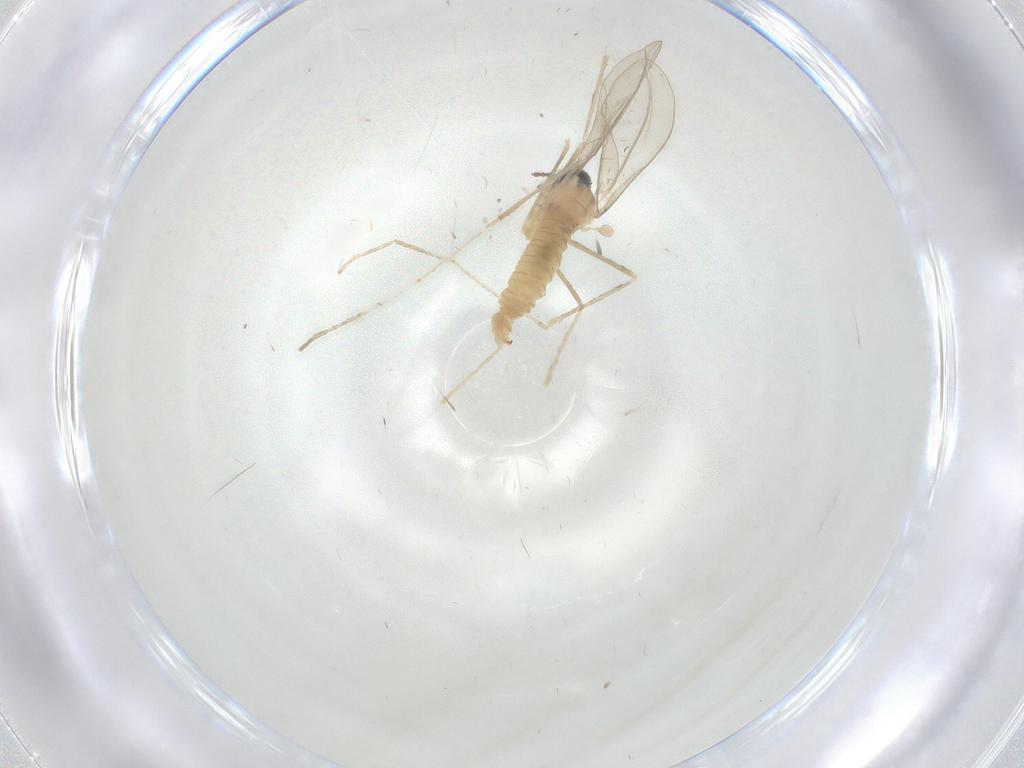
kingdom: Animalia
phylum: Arthropoda
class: Insecta
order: Diptera
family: Cecidomyiidae
